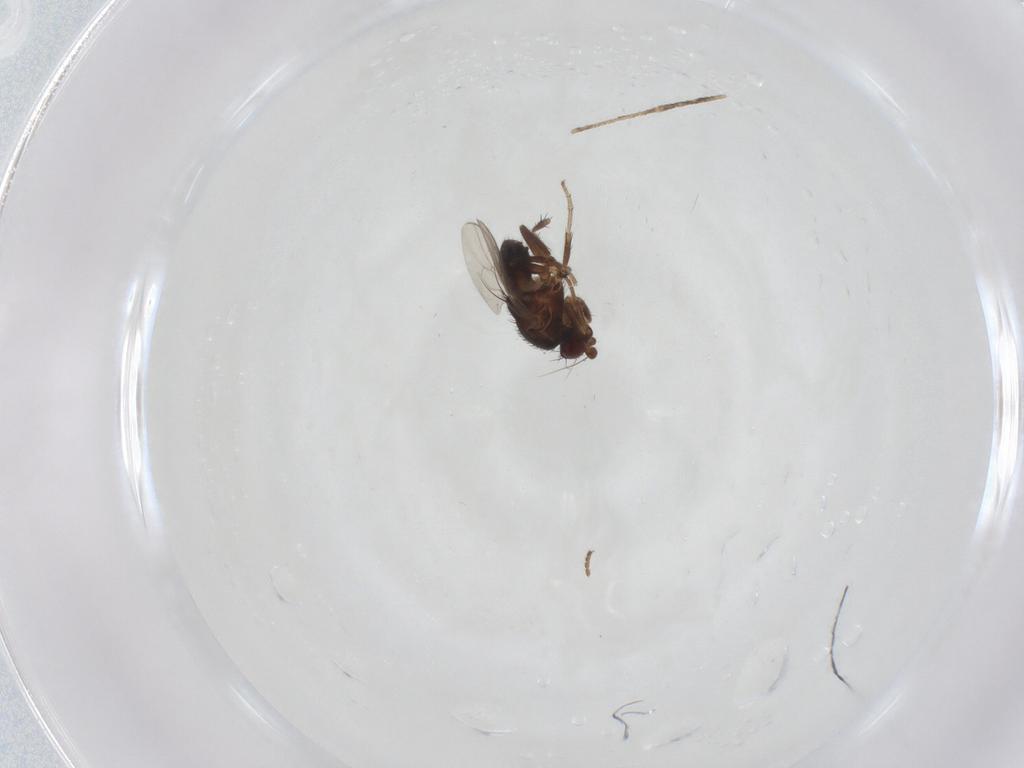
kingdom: Animalia
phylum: Arthropoda
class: Insecta
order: Diptera
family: Sphaeroceridae
